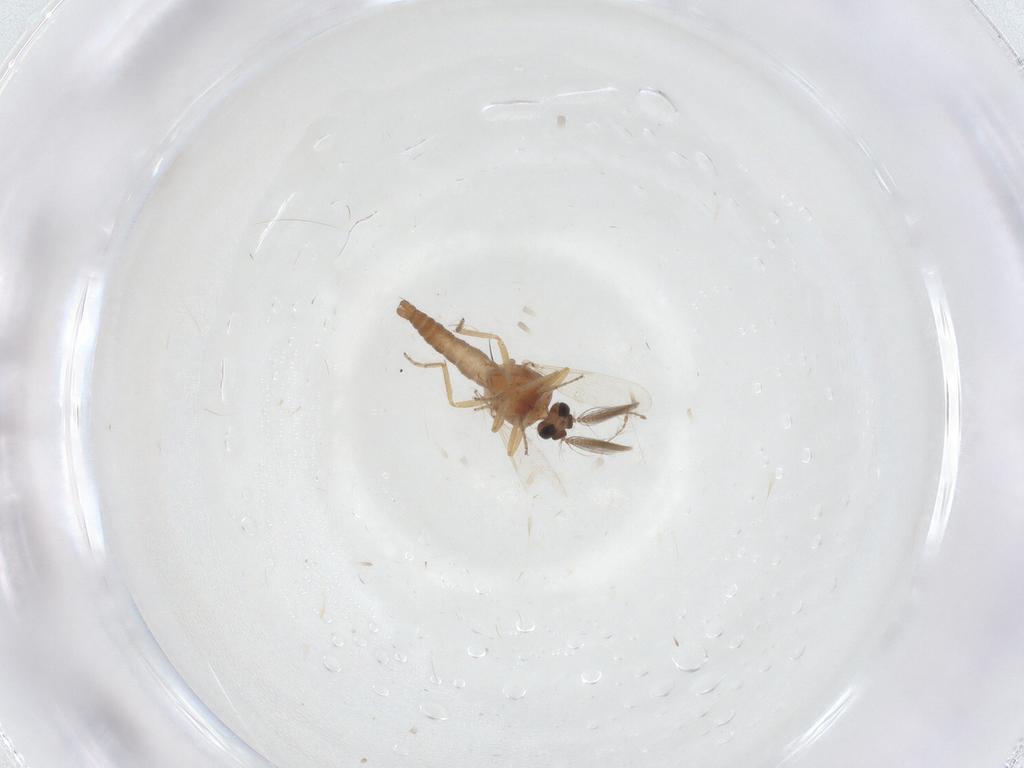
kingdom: Animalia
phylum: Arthropoda
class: Insecta
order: Diptera
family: Ceratopogonidae
